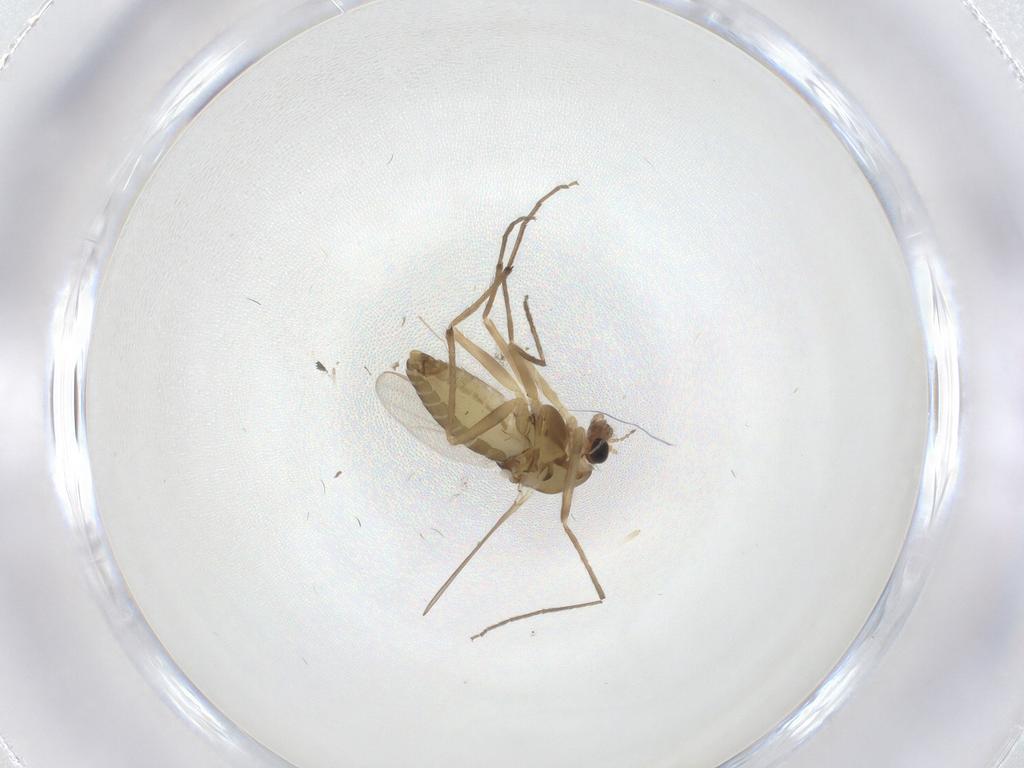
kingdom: Animalia
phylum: Arthropoda
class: Insecta
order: Diptera
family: Chironomidae
